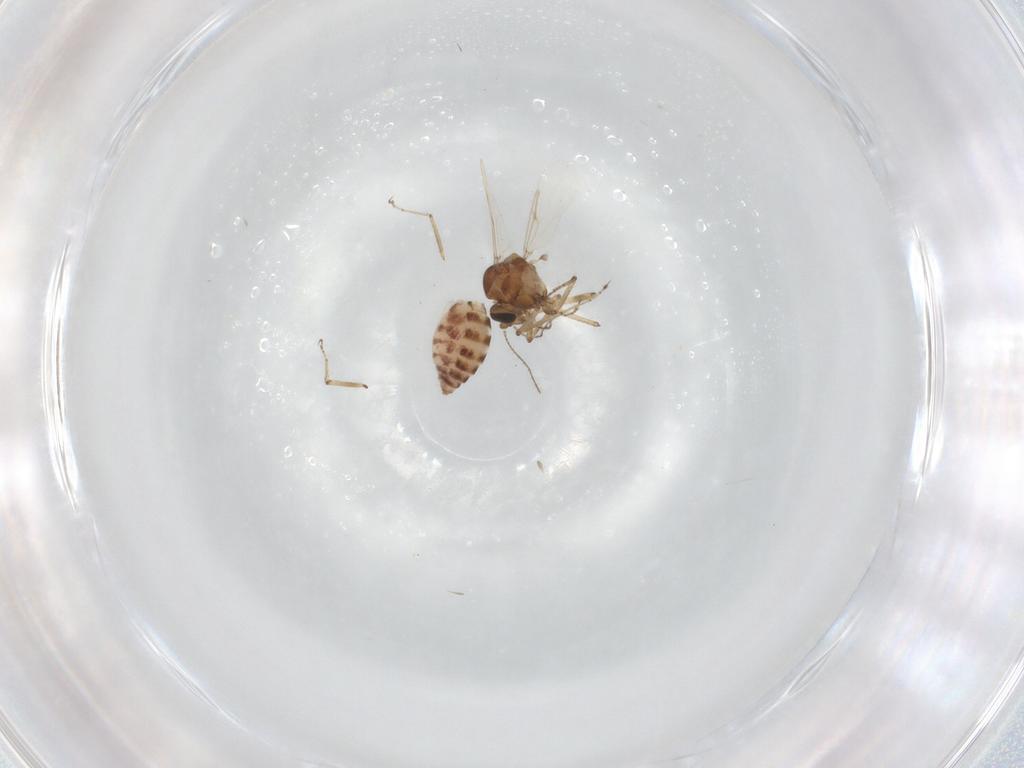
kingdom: Animalia
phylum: Arthropoda
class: Insecta
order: Diptera
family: Ceratopogonidae
